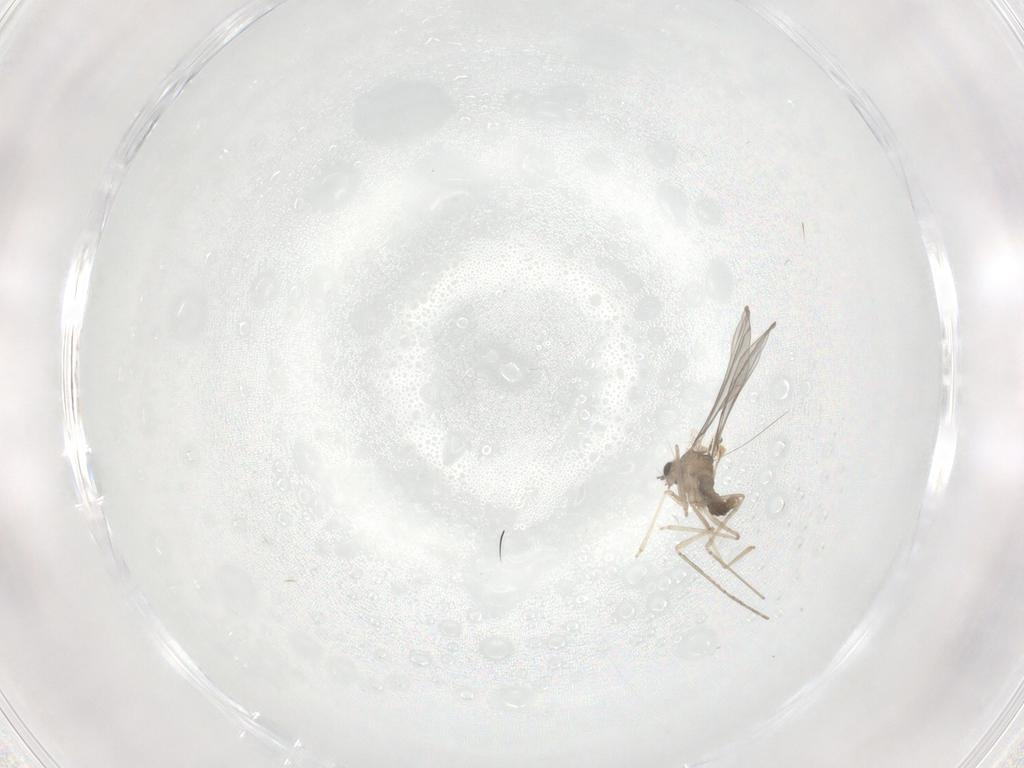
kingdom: Animalia
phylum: Arthropoda
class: Insecta
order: Diptera
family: Cecidomyiidae
